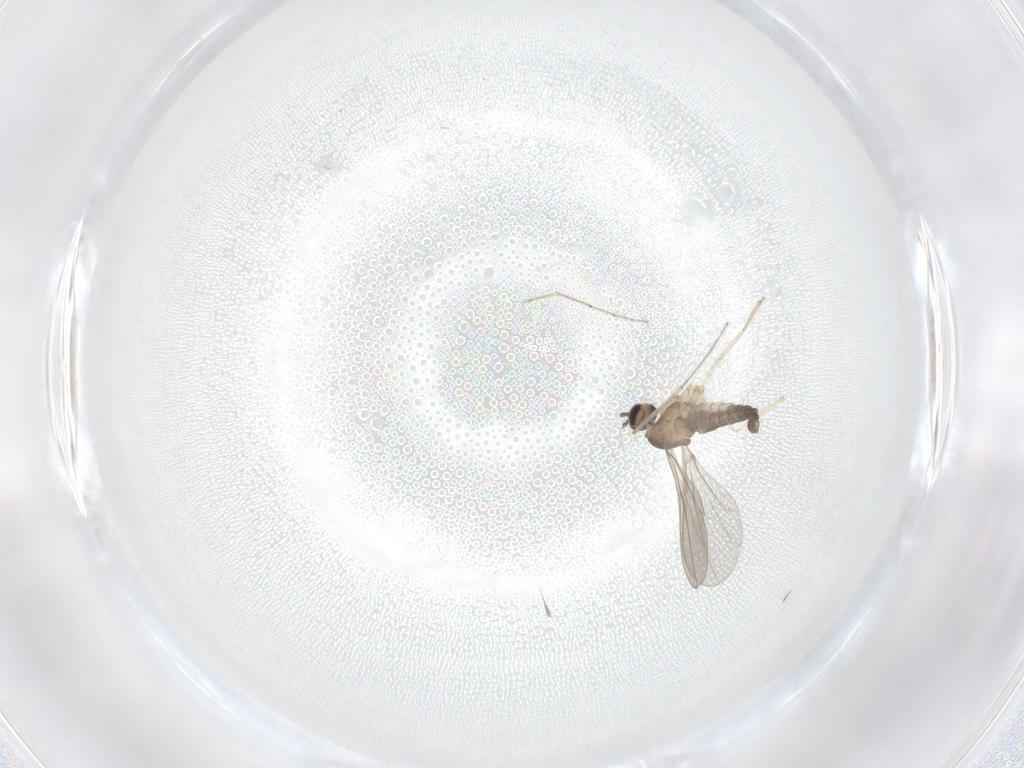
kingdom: Animalia
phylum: Arthropoda
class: Insecta
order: Diptera
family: Cecidomyiidae
